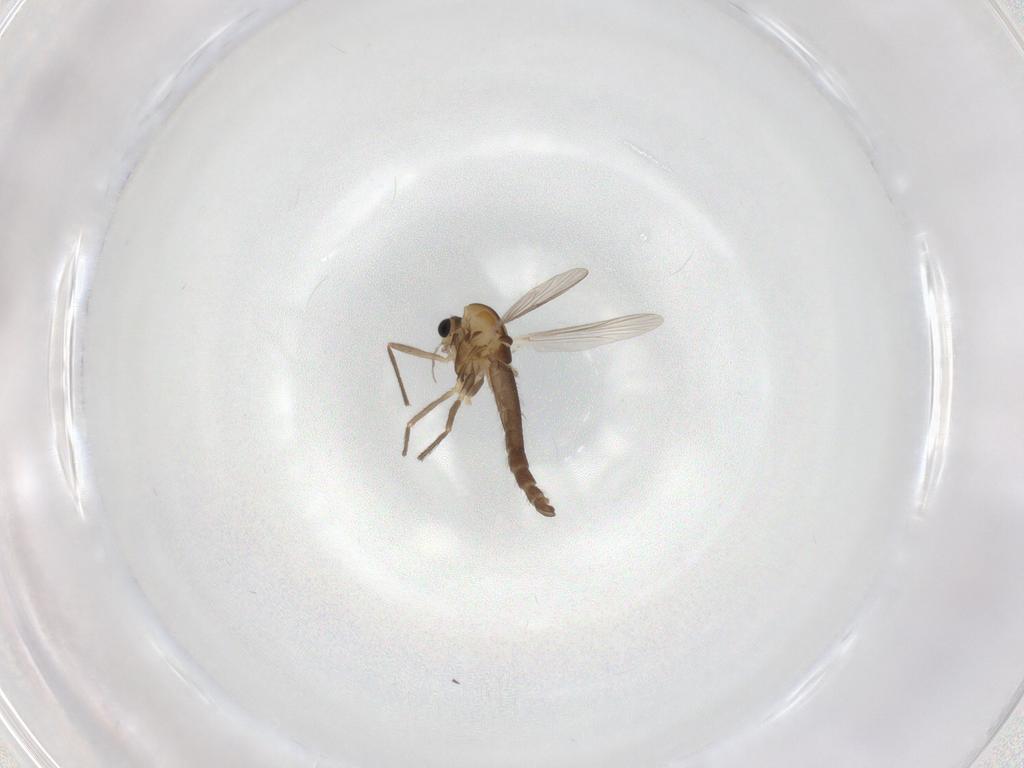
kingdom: Animalia
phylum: Arthropoda
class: Insecta
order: Diptera
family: Chironomidae
